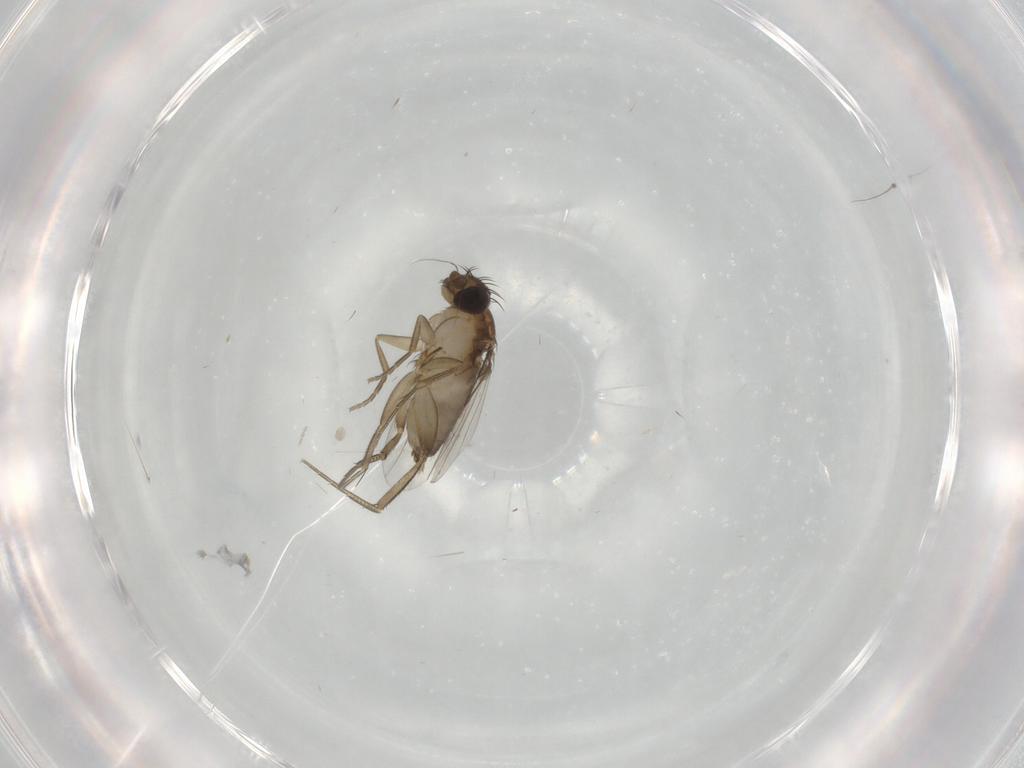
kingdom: Animalia
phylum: Arthropoda
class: Insecta
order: Diptera
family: Phoridae
